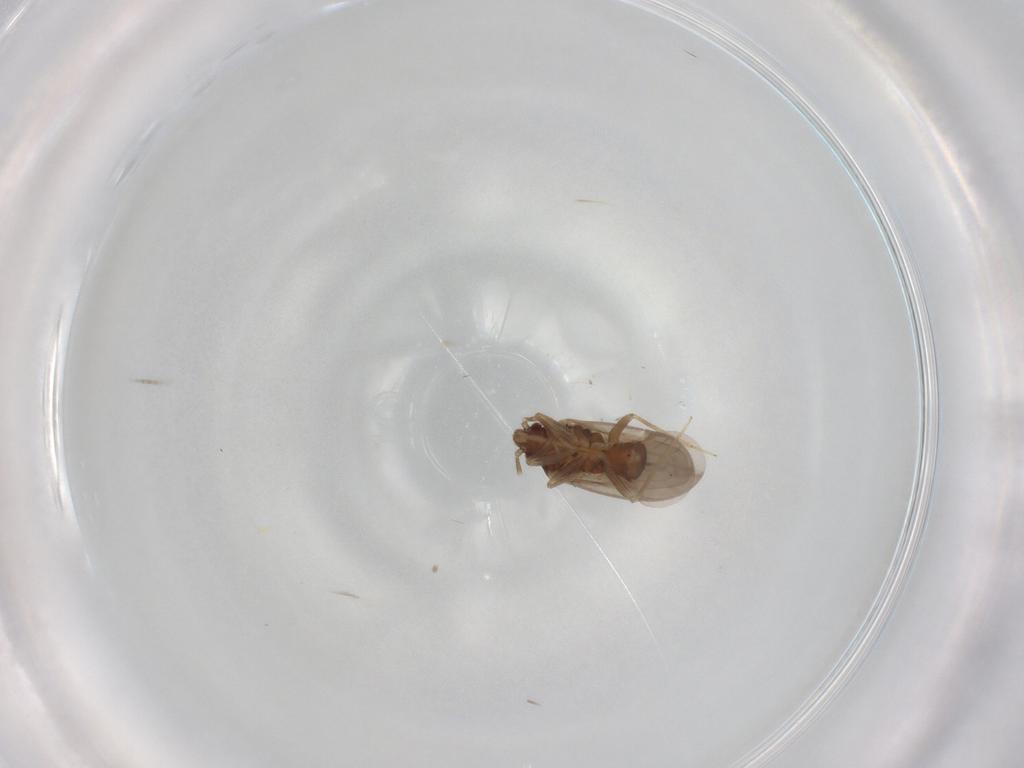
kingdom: Animalia
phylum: Arthropoda
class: Insecta
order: Hemiptera
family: Ceratocombidae
